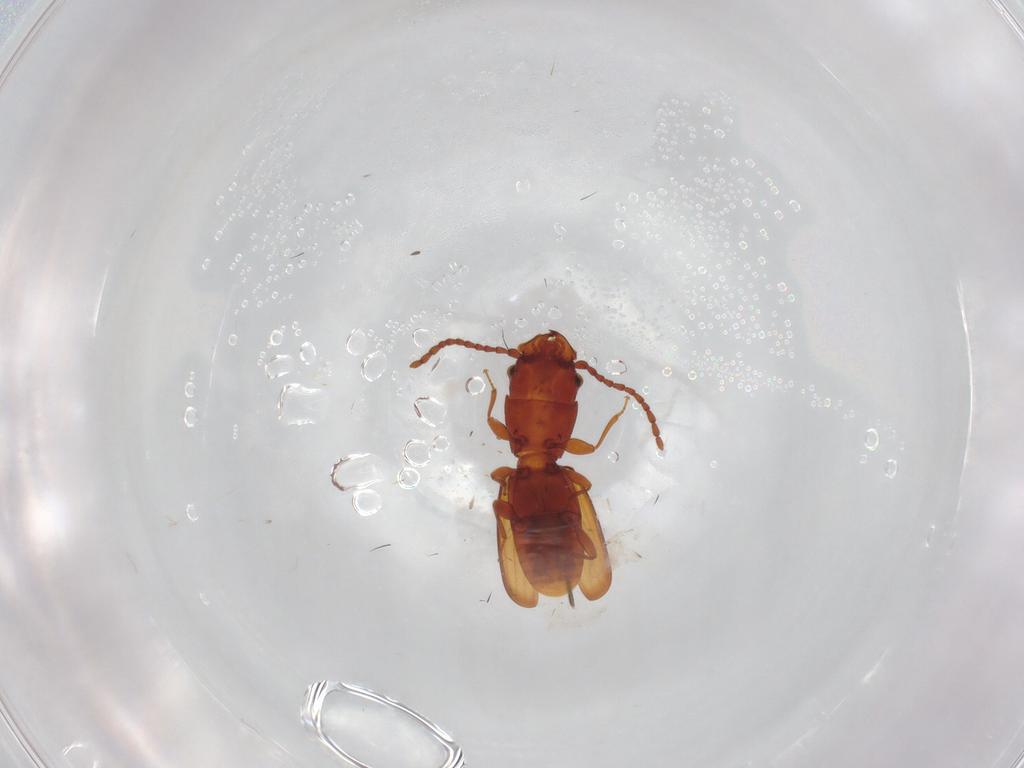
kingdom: Animalia
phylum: Arthropoda
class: Insecta
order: Coleoptera
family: Laemophloeidae
